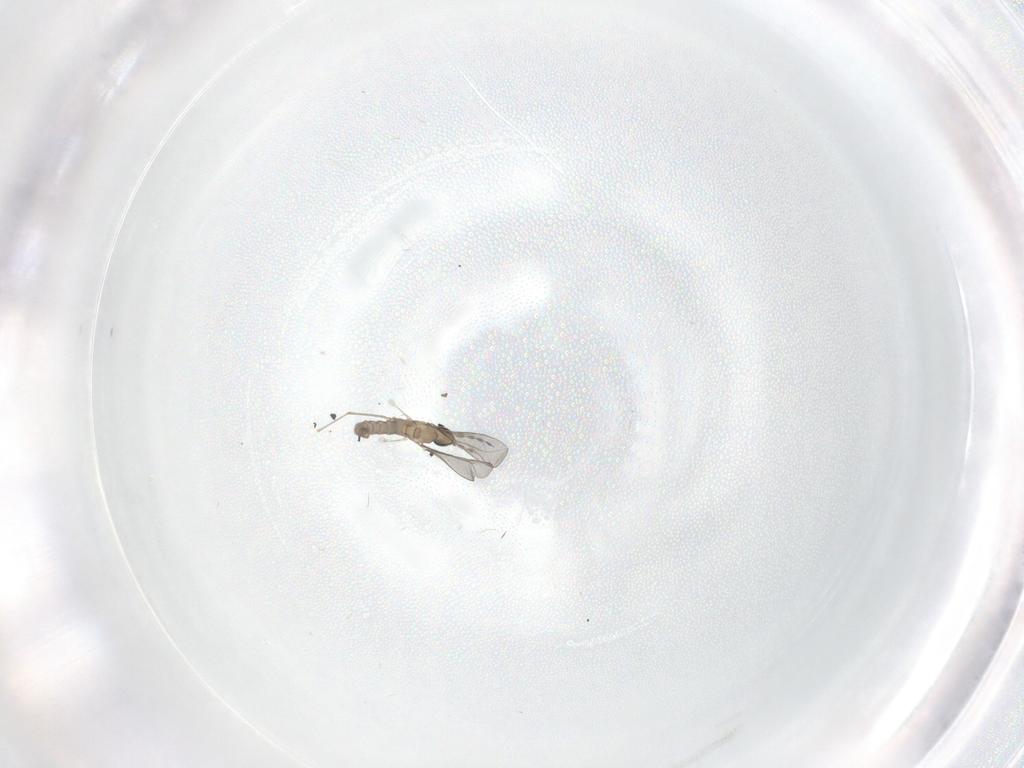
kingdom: Animalia
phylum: Arthropoda
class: Insecta
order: Diptera
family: Cecidomyiidae
